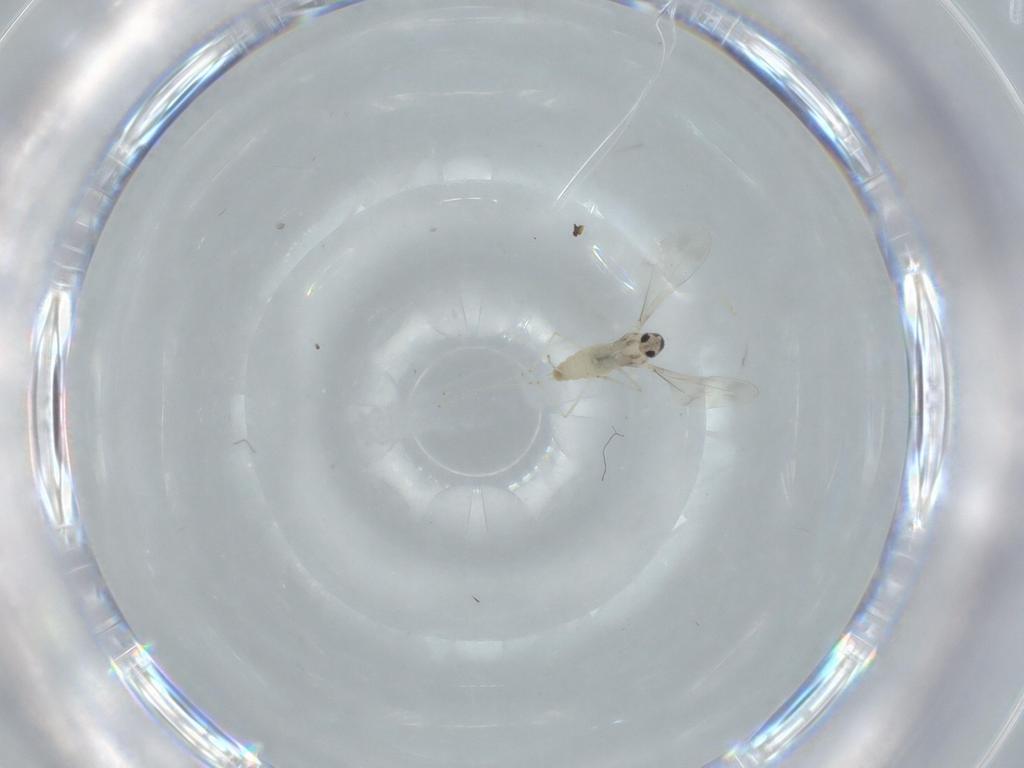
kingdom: Animalia
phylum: Arthropoda
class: Insecta
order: Diptera
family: Cecidomyiidae
